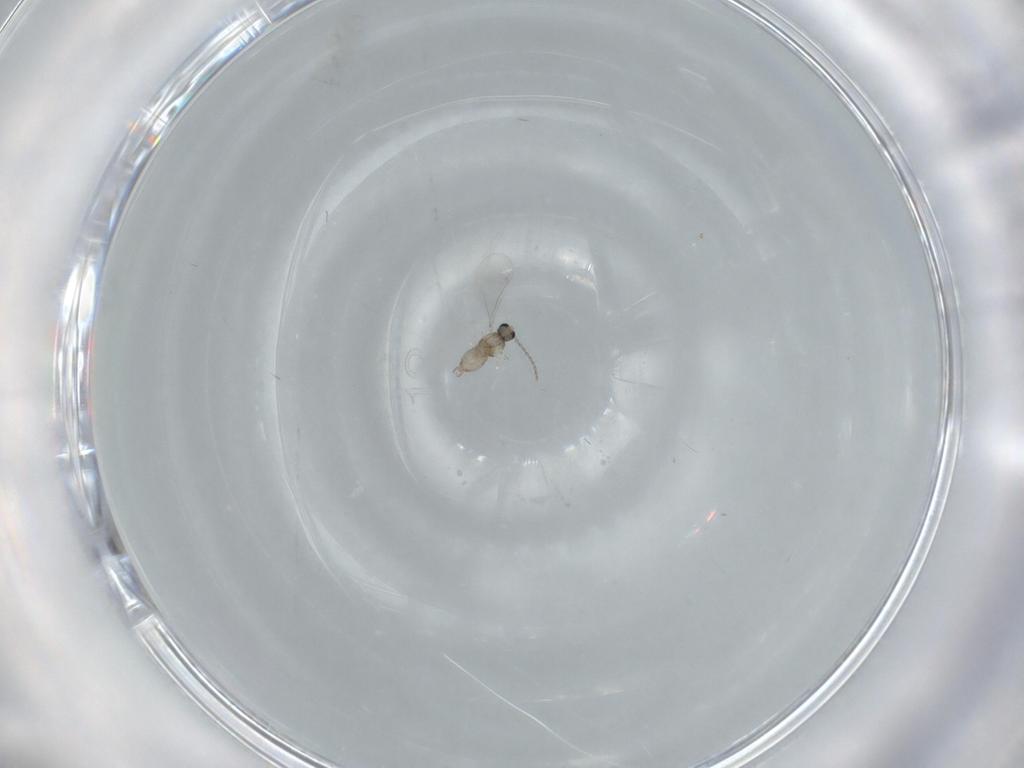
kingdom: Animalia
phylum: Arthropoda
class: Insecta
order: Diptera
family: Cecidomyiidae
